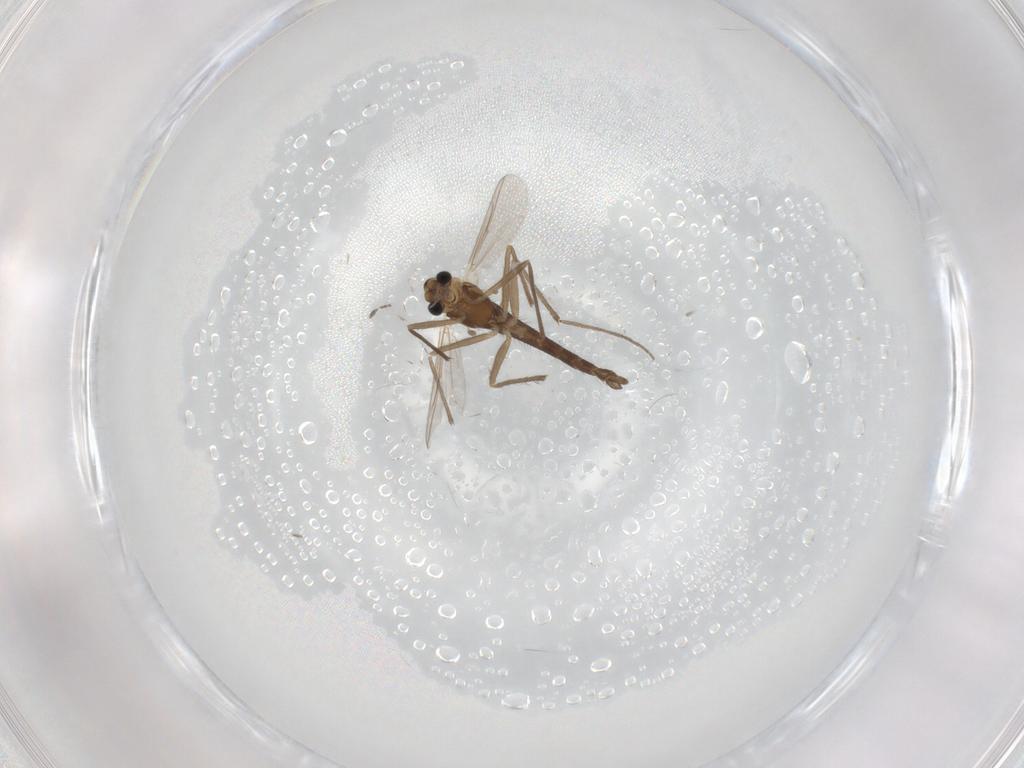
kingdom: Animalia
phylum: Arthropoda
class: Insecta
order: Diptera
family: Chironomidae
